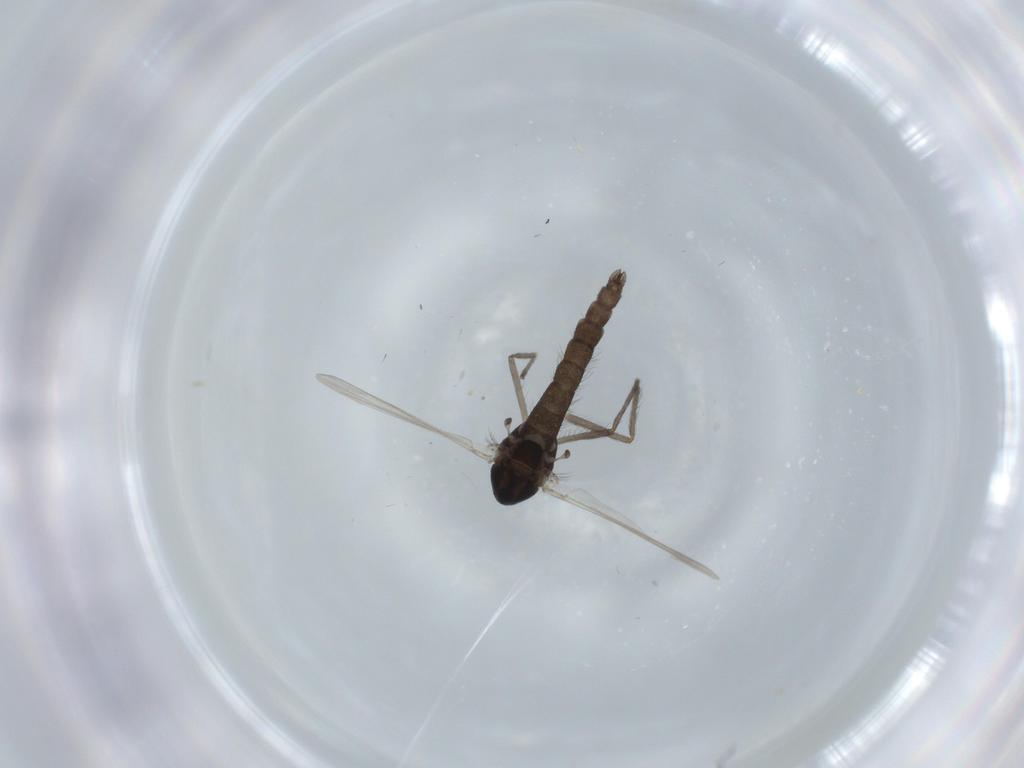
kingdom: Animalia
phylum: Arthropoda
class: Insecta
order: Diptera
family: Chironomidae
